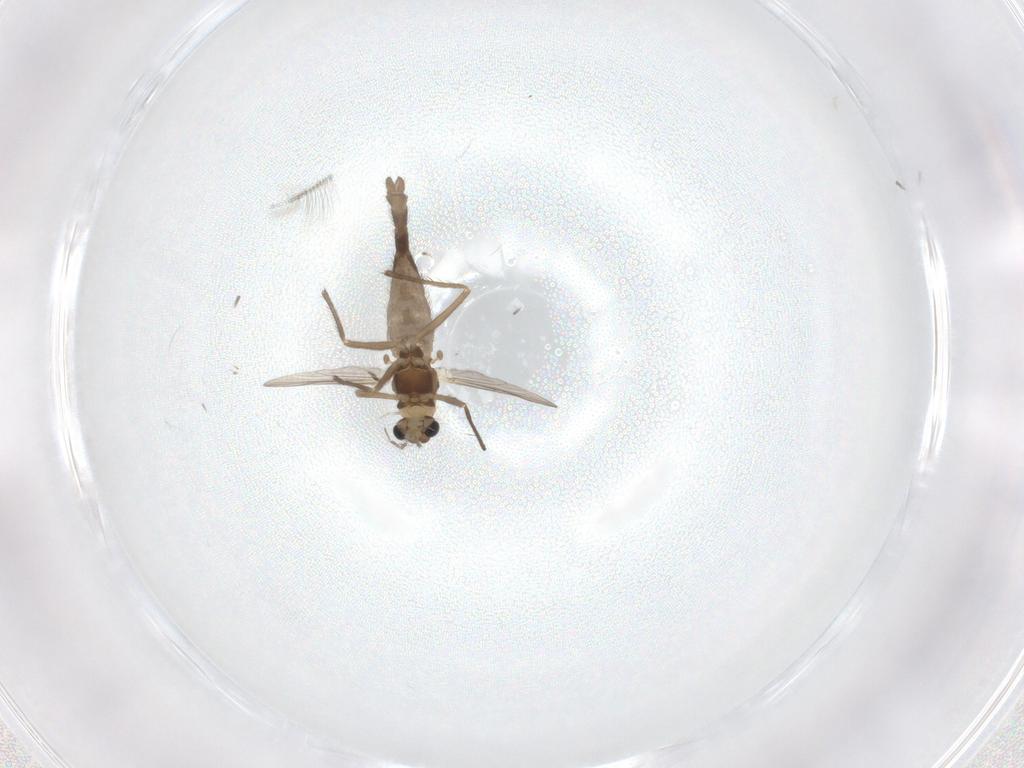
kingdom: Animalia
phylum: Arthropoda
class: Insecta
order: Diptera
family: Chironomidae
